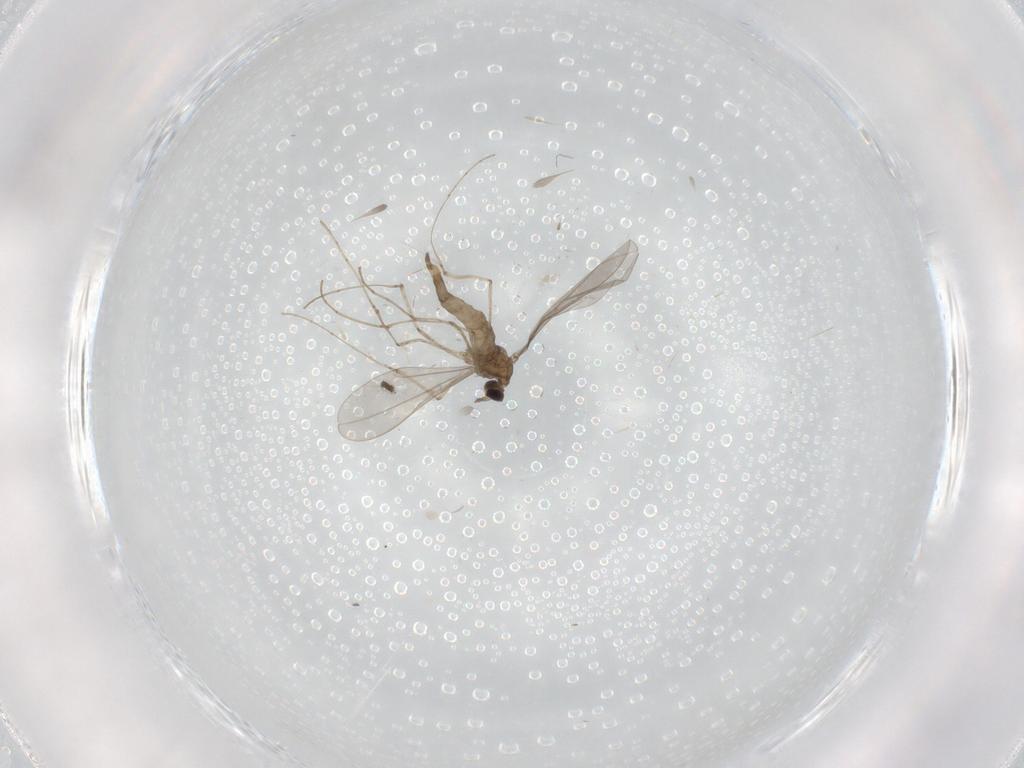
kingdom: Animalia
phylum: Arthropoda
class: Insecta
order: Diptera
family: Cecidomyiidae
